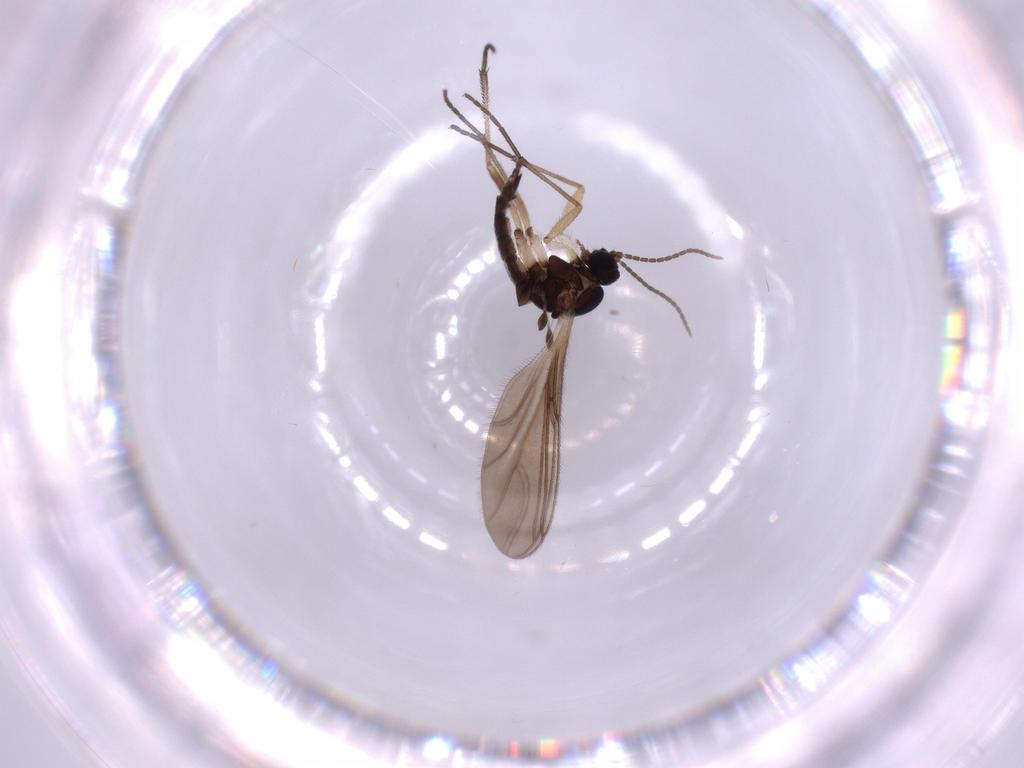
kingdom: Animalia
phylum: Arthropoda
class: Insecta
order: Diptera
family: Sciaridae
